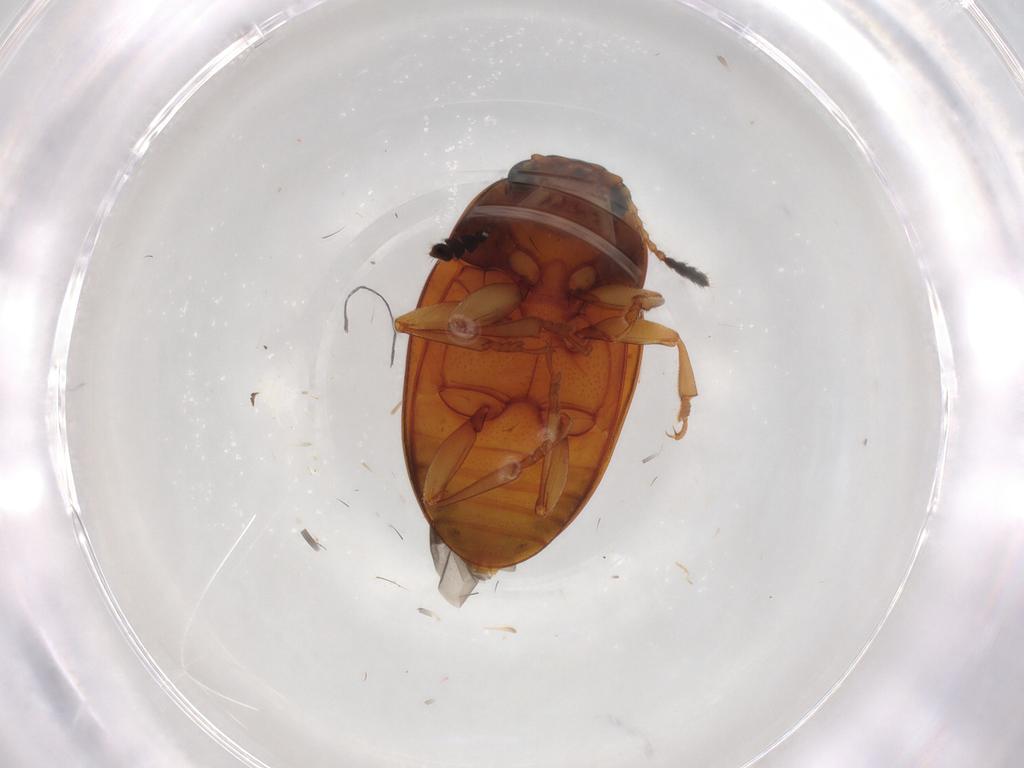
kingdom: Animalia
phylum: Arthropoda
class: Insecta
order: Coleoptera
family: Erotylidae
